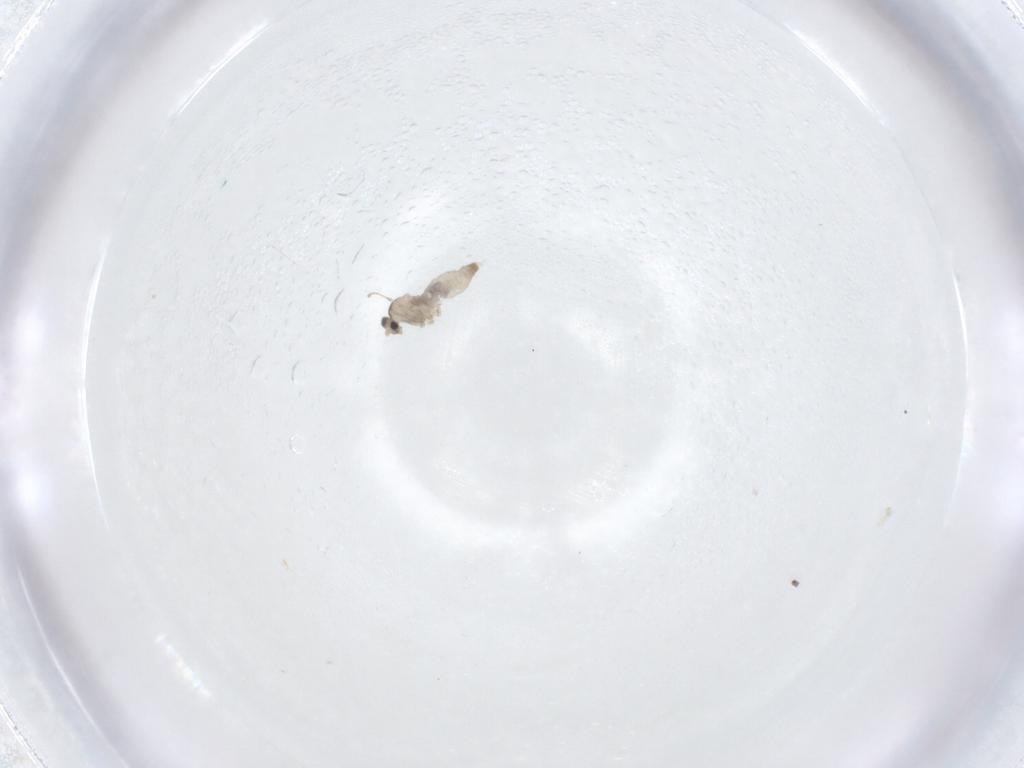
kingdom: Animalia
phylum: Arthropoda
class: Insecta
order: Diptera
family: Cecidomyiidae
